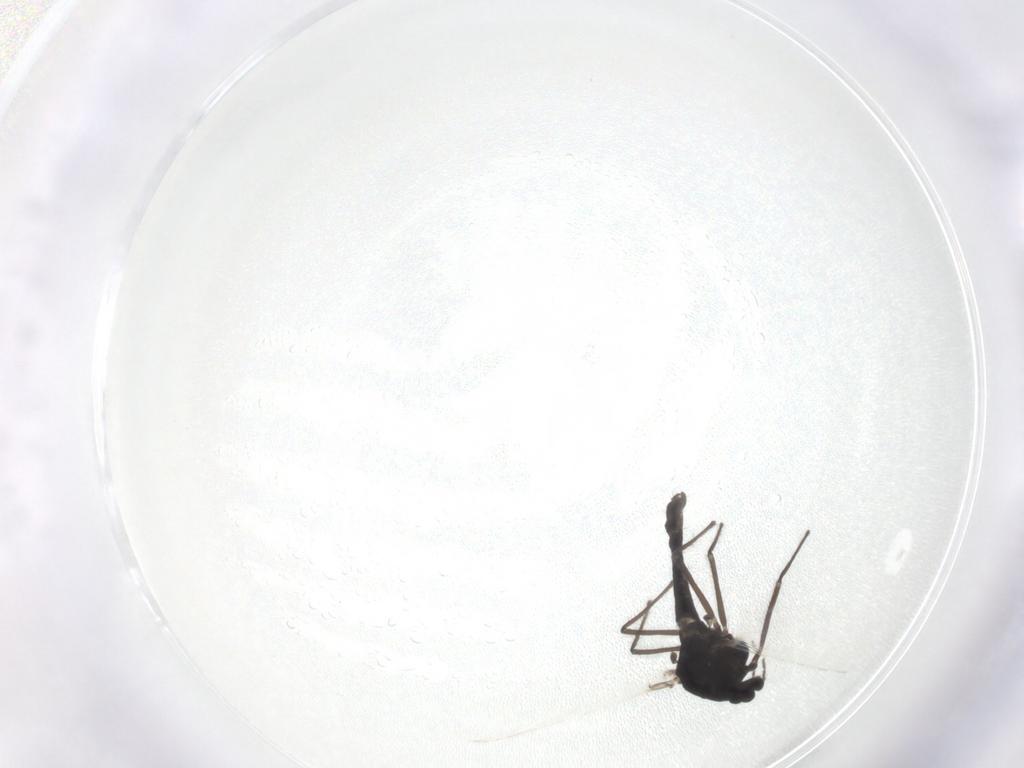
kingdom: Animalia
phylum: Arthropoda
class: Insecta
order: Diptera
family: Chironomidae
